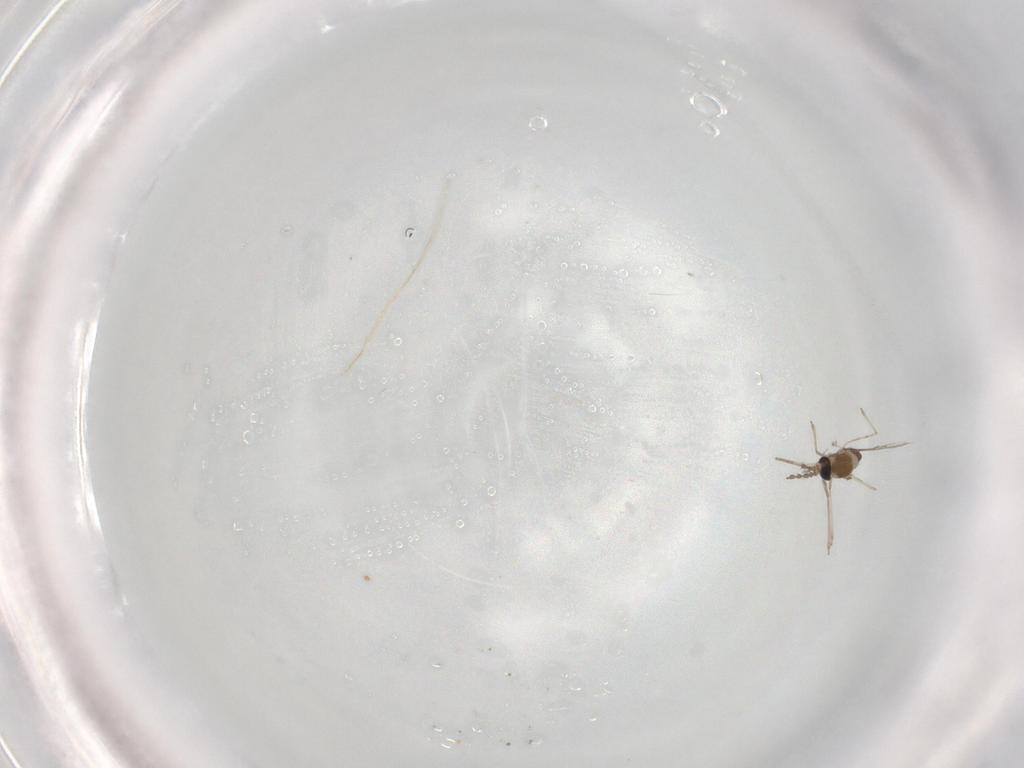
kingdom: Animalia
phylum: Arthropoda
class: Insecta
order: Diptera
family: Cecidomyiidae
